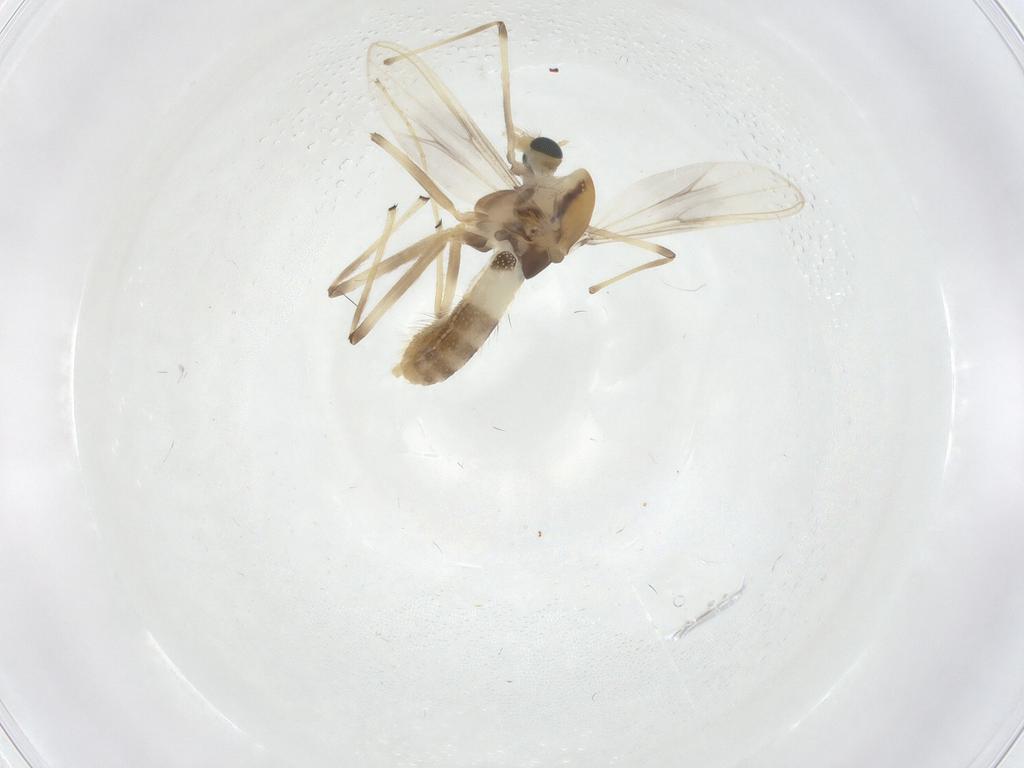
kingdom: Animalia
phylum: Arthropoda
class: Insecta
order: Diptera
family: Chironomidae
